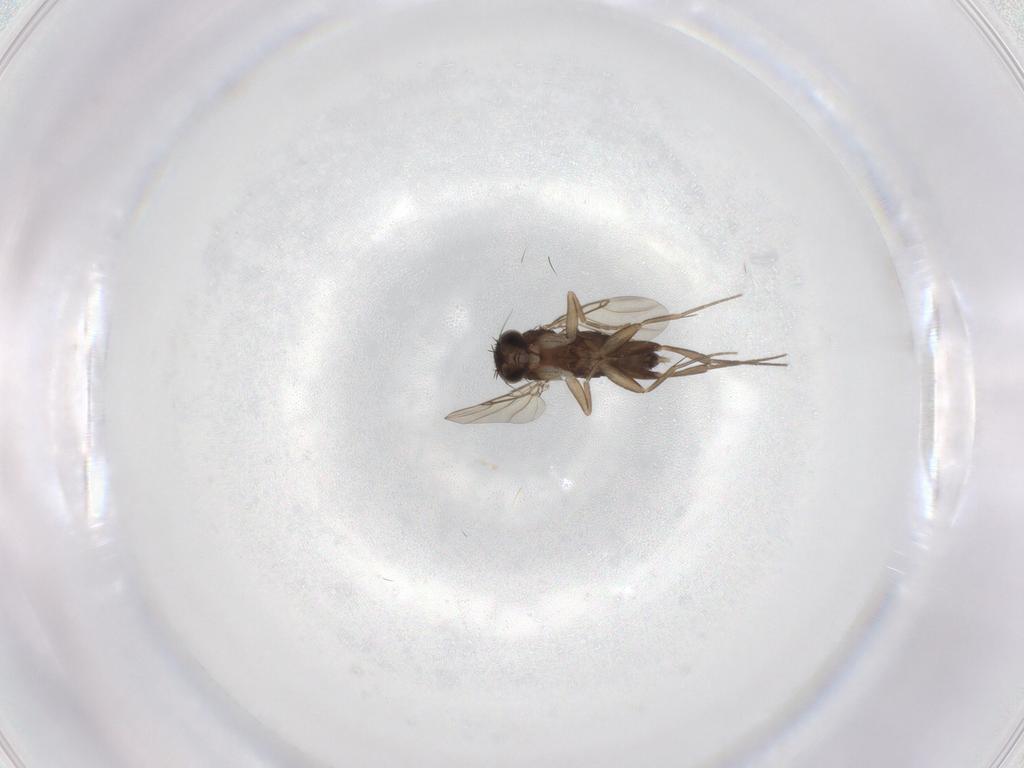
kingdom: Animalia
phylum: Arthropoda
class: Insecta
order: Diptera
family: Phoridae
